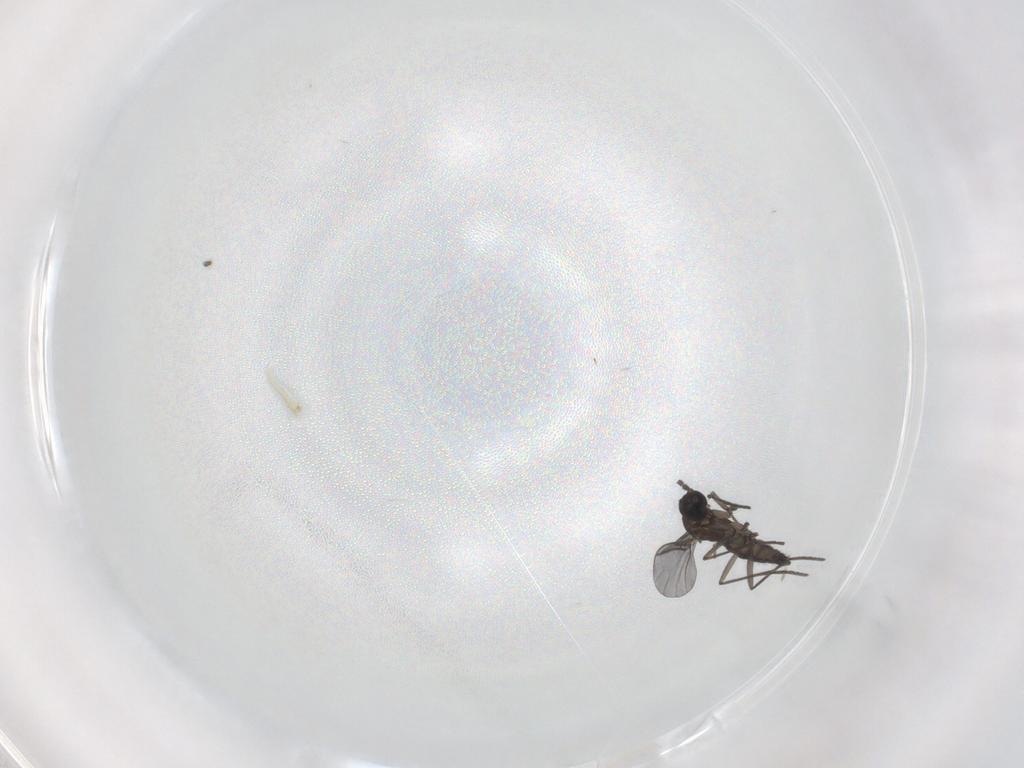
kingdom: Animalia
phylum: Arthropoda
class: Insecta
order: Diptera
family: Sciaridae
